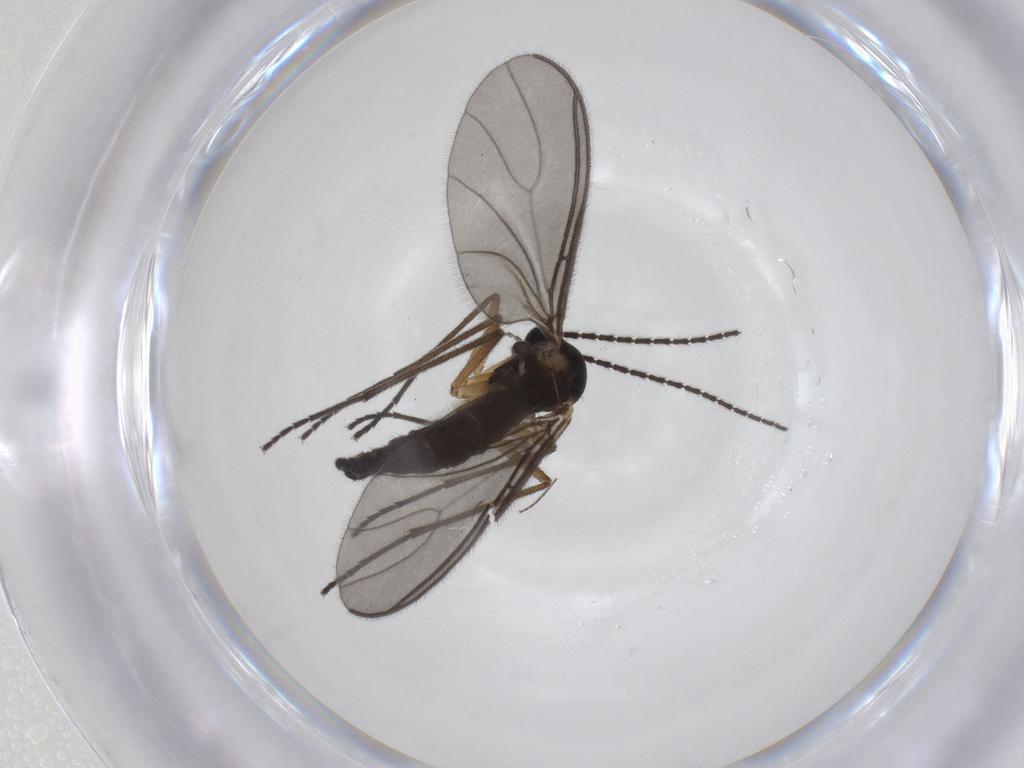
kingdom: Animalia
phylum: Arthropoda
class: Insecta
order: Diptera
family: Sciaridae
